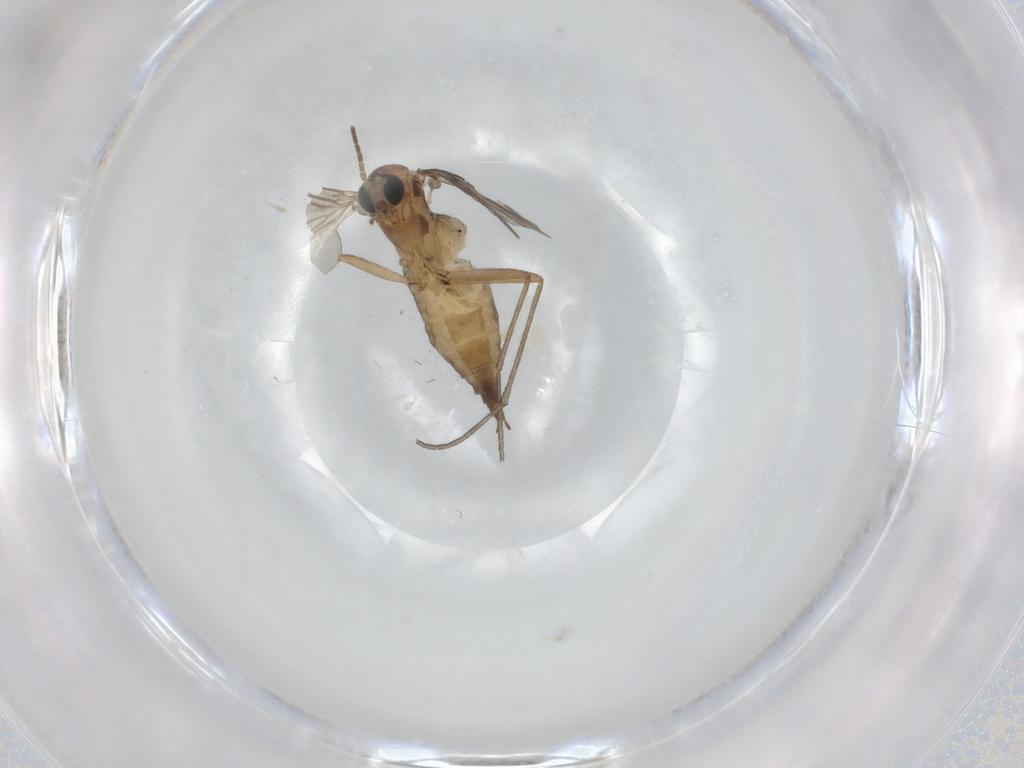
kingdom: Animalia
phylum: Arthropoda
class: Insecta
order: Diptera
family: Sciaridae
